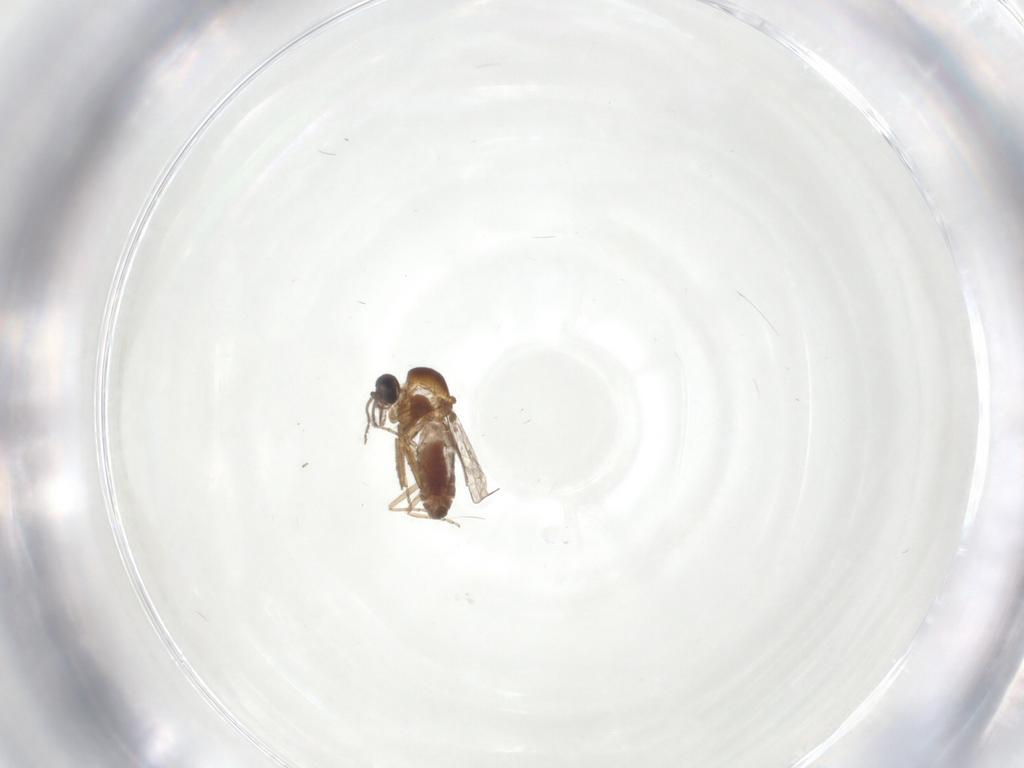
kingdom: Animalia
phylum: Arthropoda
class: Insecta
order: Diptera
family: Ceratopogonidae
